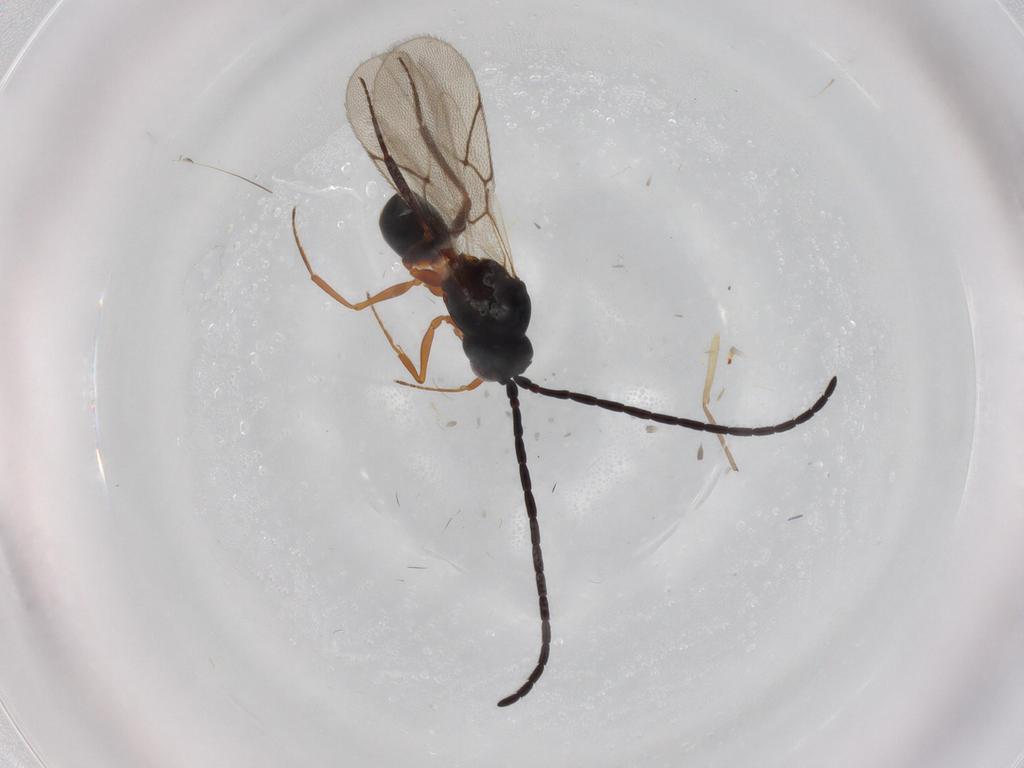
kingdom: Animalia
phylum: Arthropoda
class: Insecta
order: Hymenoptera
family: Figitidae
